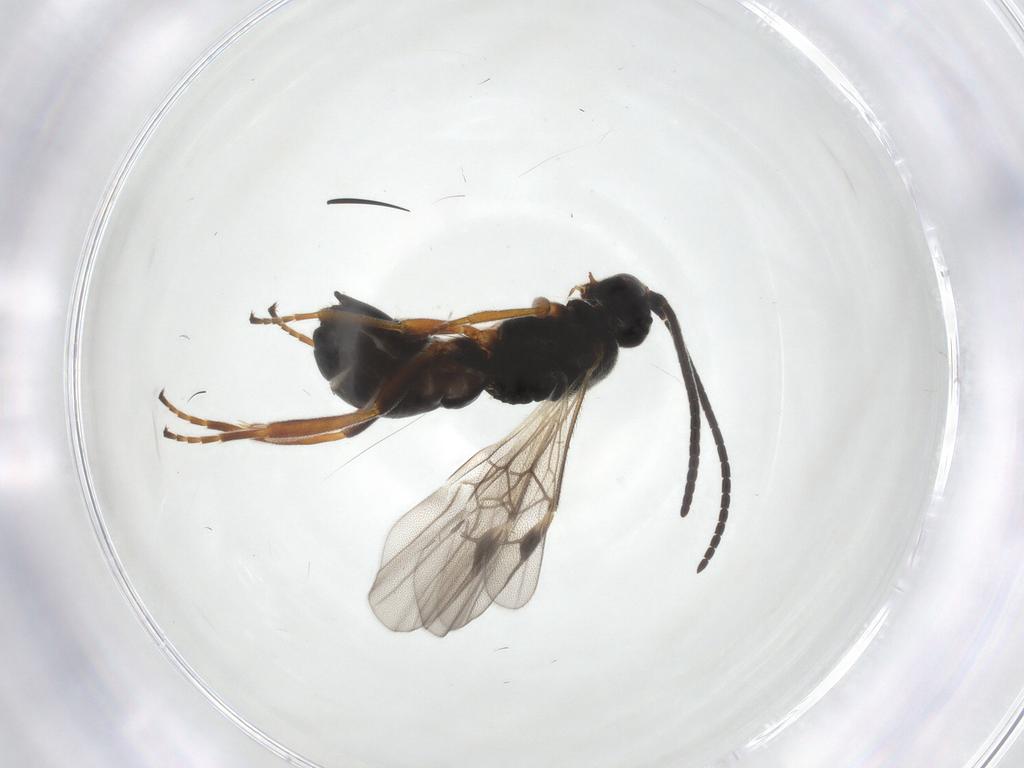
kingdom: Animalia
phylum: Arthropoda
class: Insecta
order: Hymenoptera
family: Braconidae
